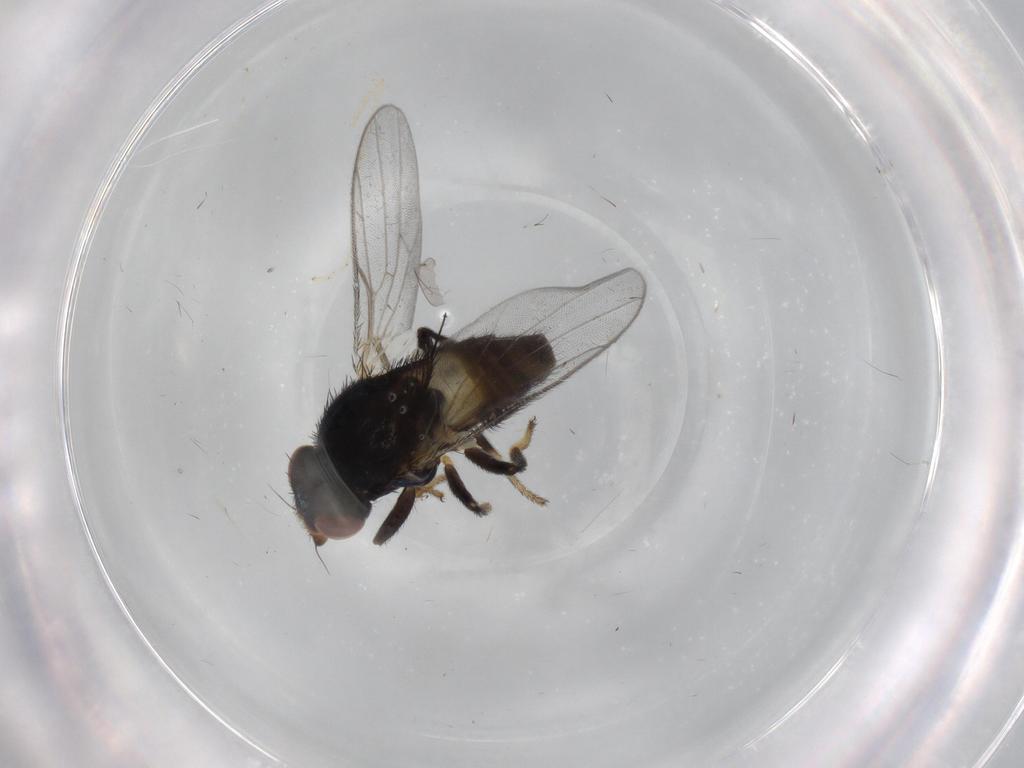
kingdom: Animalia
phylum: Arthropoda
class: Insecta
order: Diptera
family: Chloropidae
